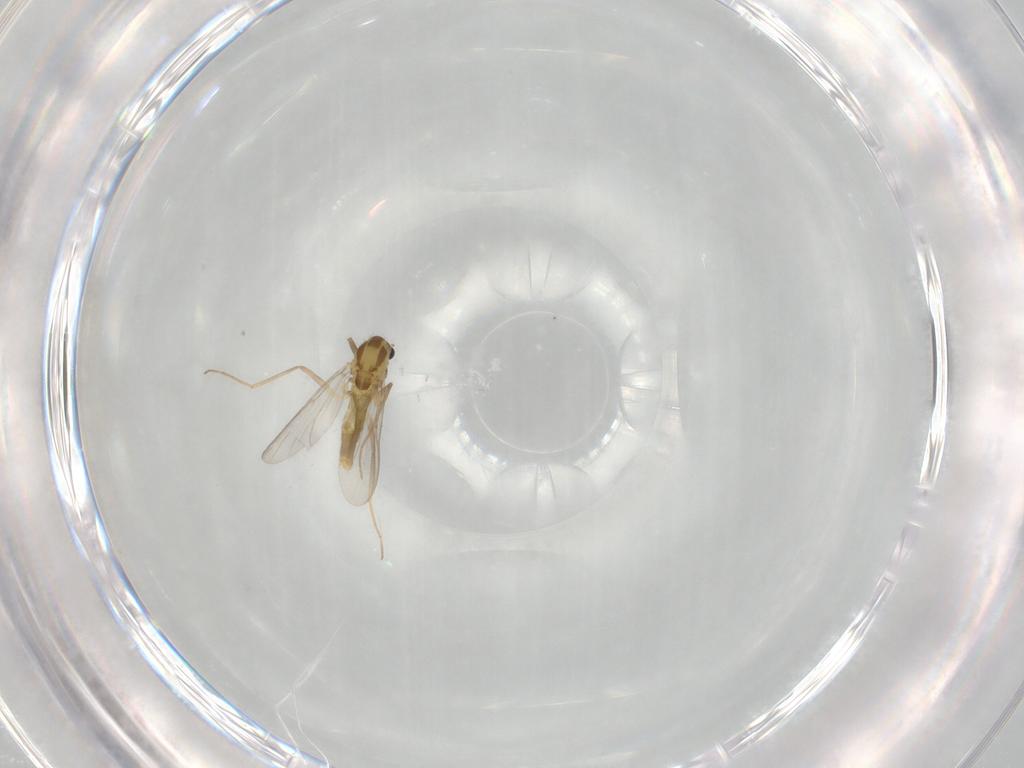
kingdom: Animalia
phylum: Arthropoda
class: Insecta
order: Diptera
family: Chironomidae
